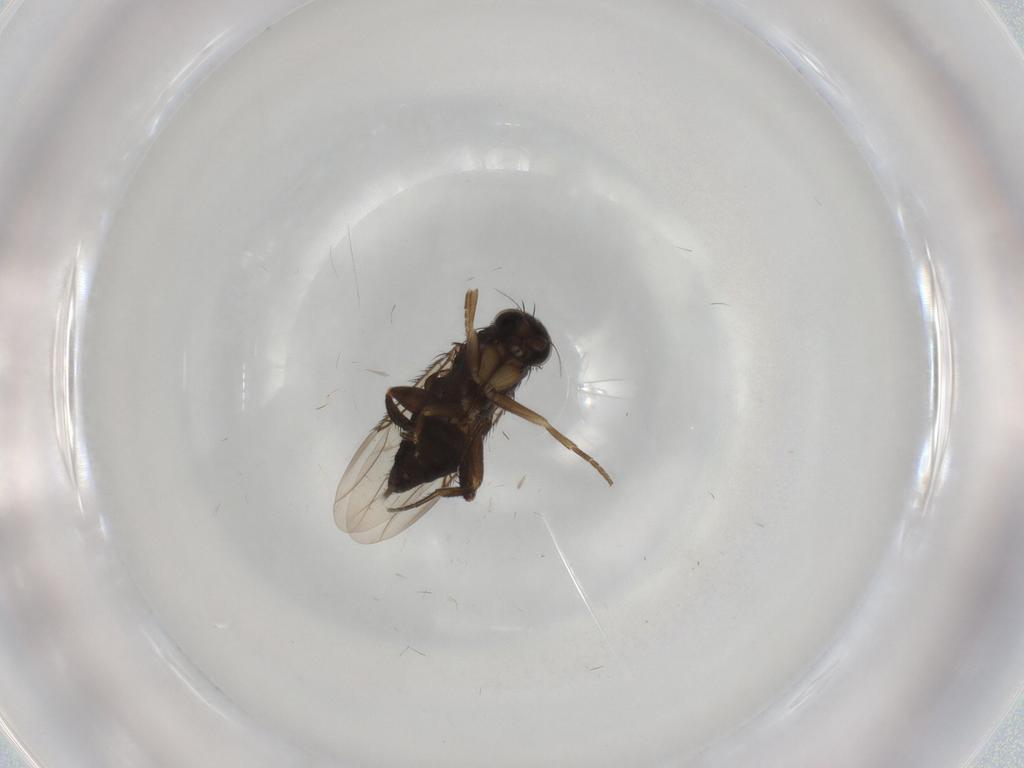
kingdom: Animalia
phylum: Arthropoda
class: Insecta
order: Diptera
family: Phoridae
